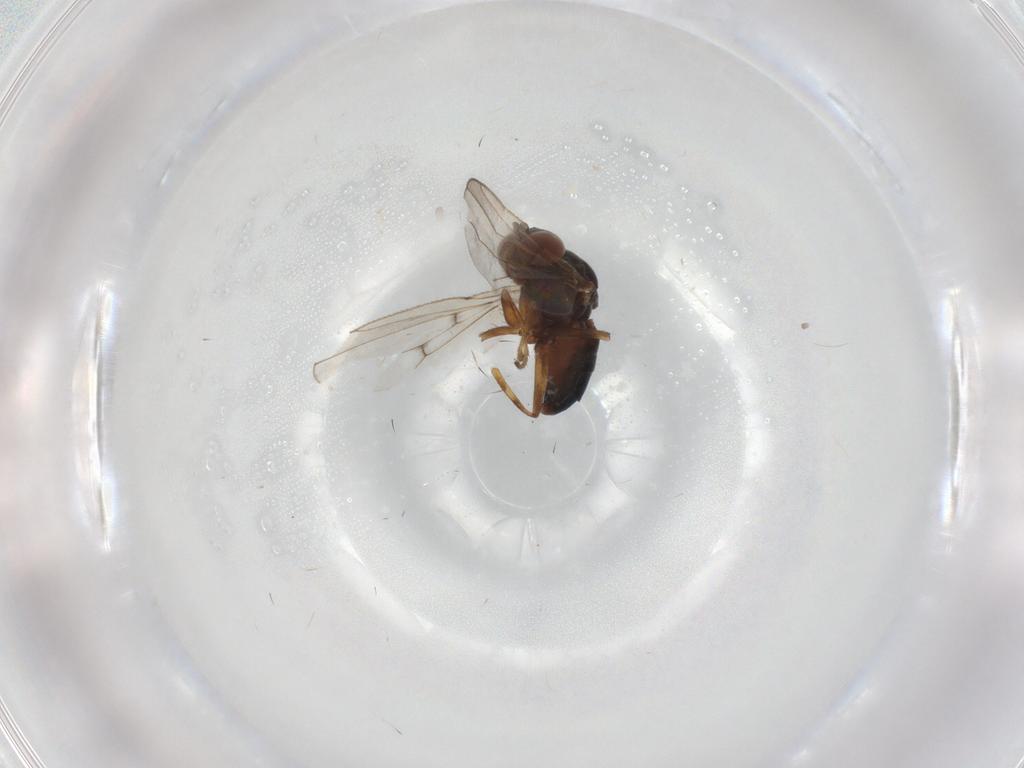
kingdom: Animalia
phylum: Arthropoda
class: Insecta
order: Diptera
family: Ephydridae
